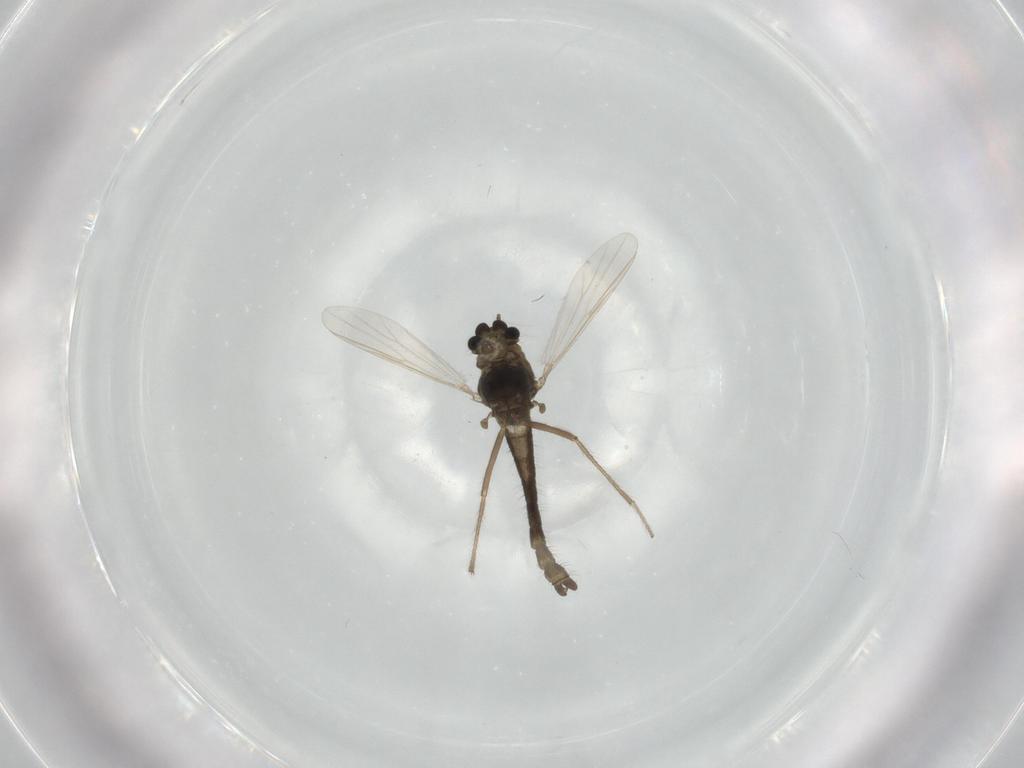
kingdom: Animalia
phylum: Arthropoda
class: Insecta
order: Diptera
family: Chironomidae
